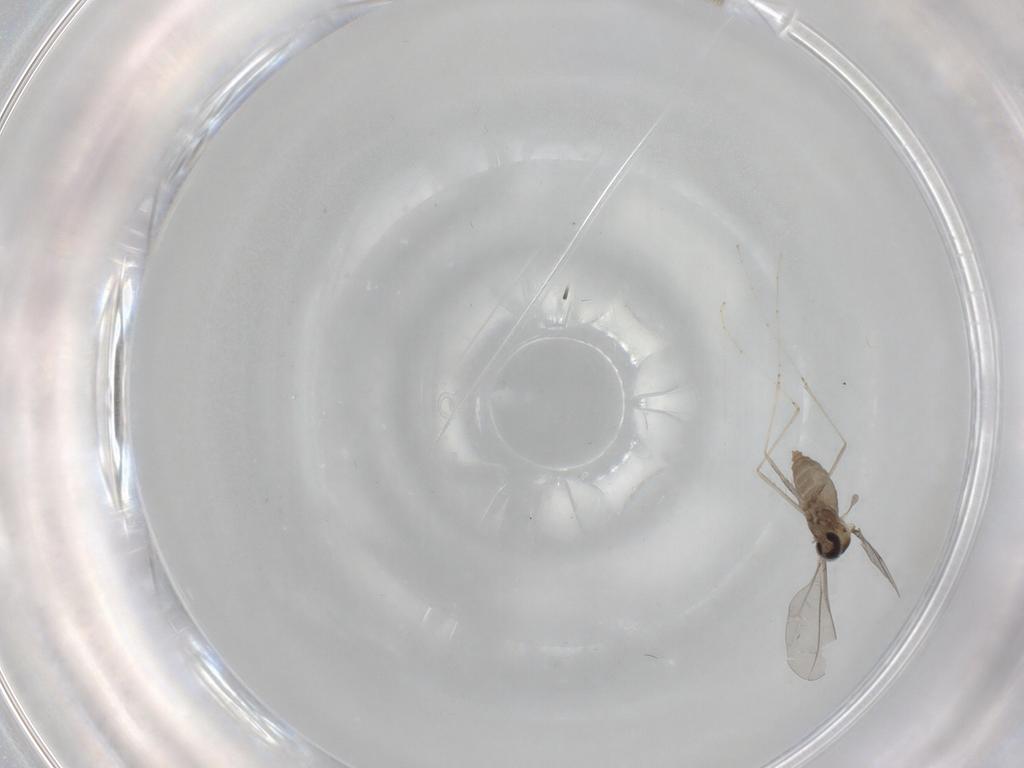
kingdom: Animalia
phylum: Arthropoda
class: Insecta
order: Diptera
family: Cecidomyiidae
